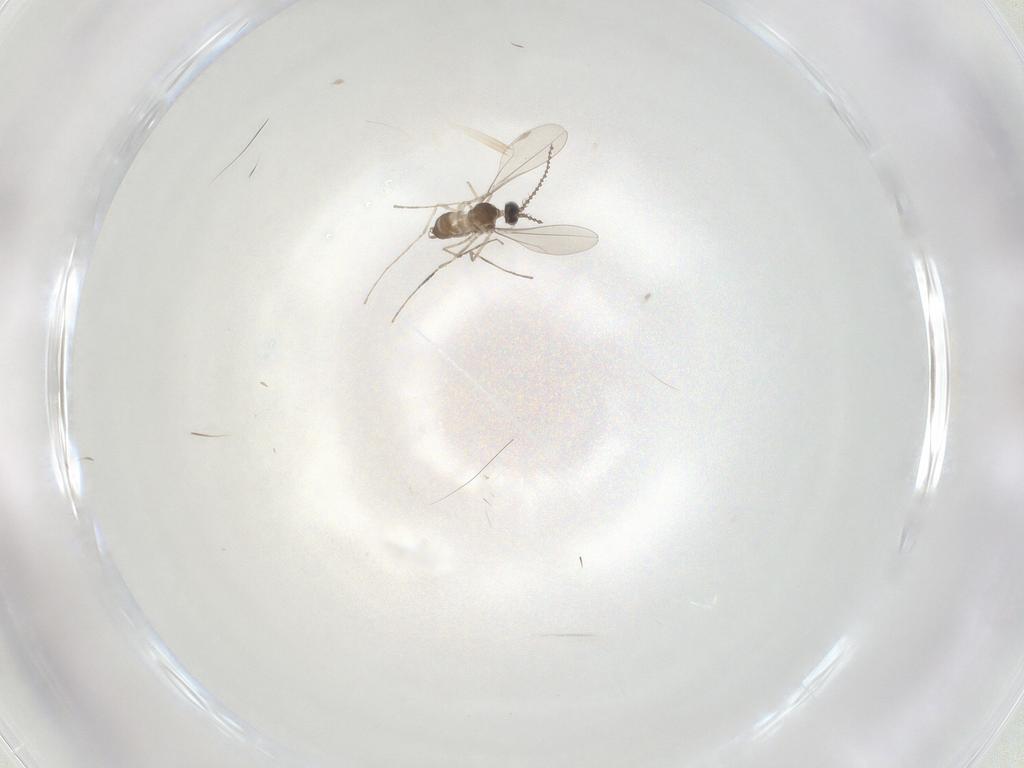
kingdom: Animalia
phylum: Arthropoda
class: Insecta
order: Diptera
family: Cecidomyiidae
